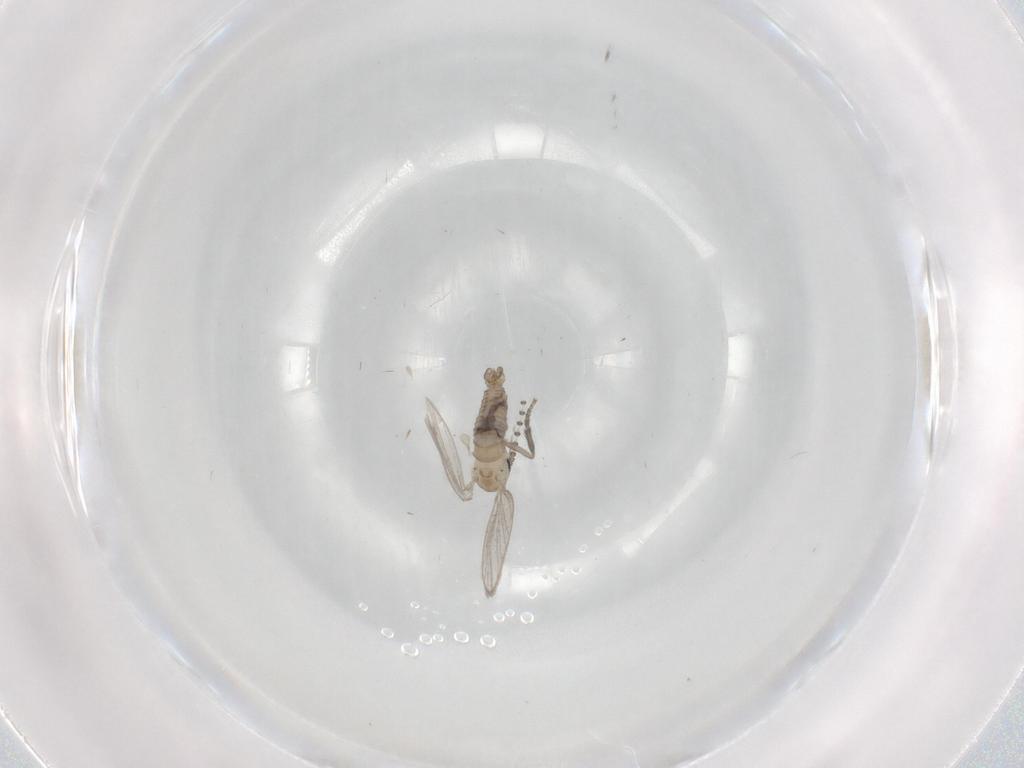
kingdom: Animalia
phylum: Arthropoda
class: Insecta
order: Diptera
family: Psychodidae
